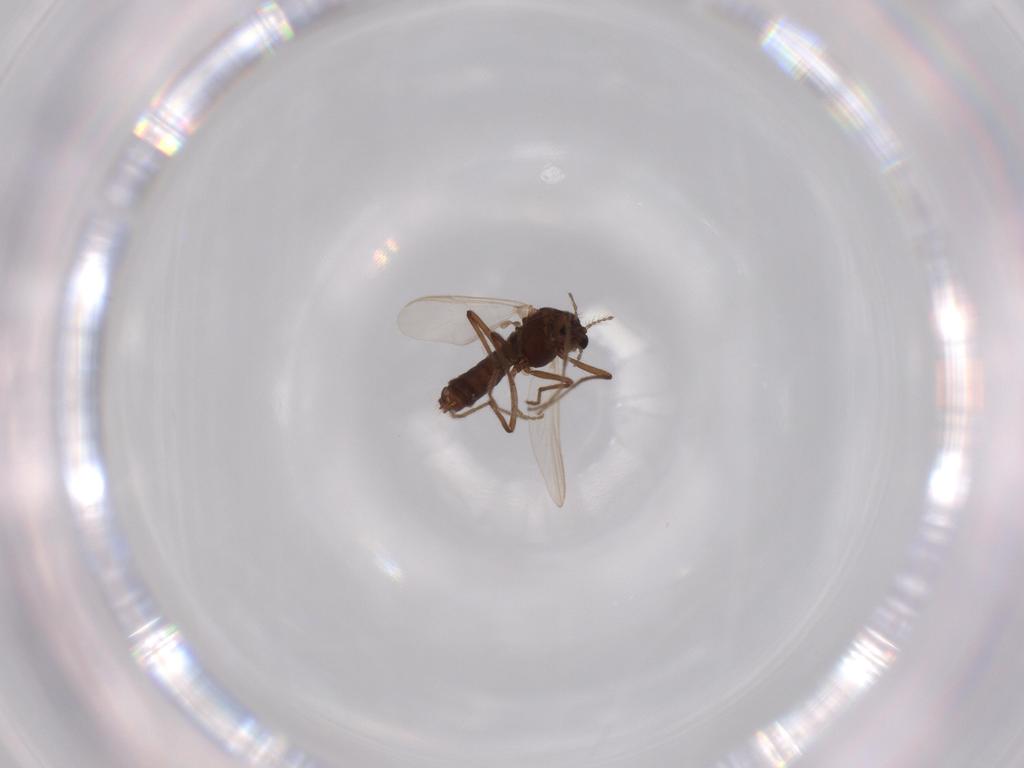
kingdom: Animalia
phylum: Arthropoda
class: Insecta
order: Diptera
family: Chironomidae
